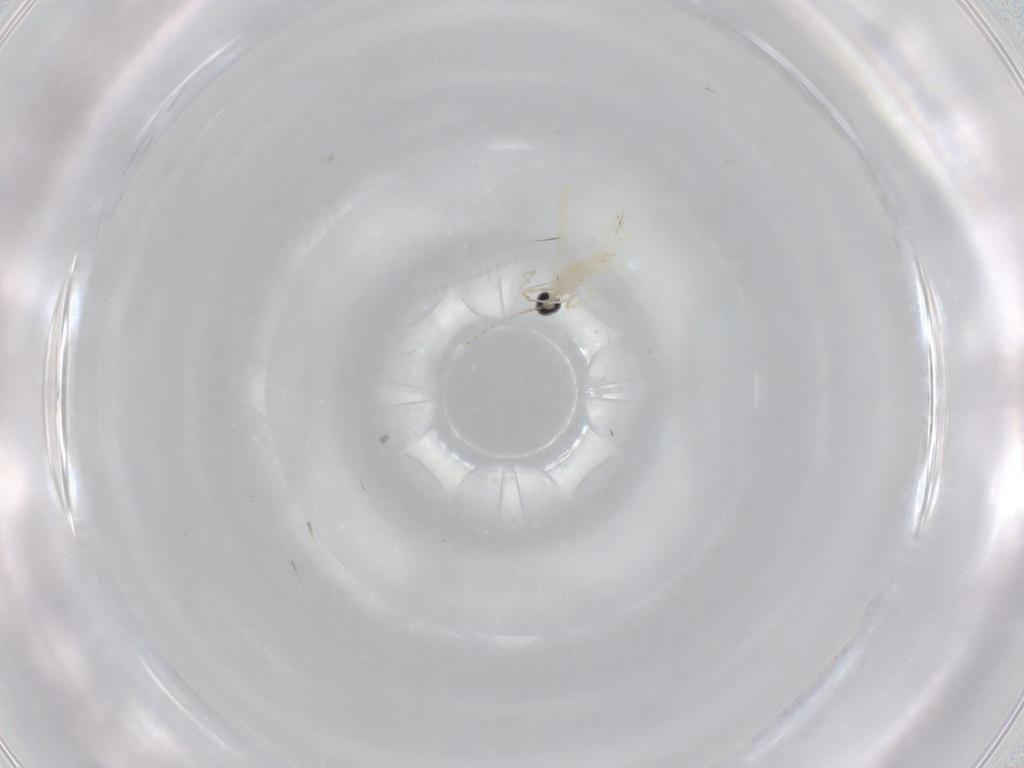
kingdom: Animalia
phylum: Arthropoda
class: Insecta
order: Diptera
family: Cecidomyiidae
